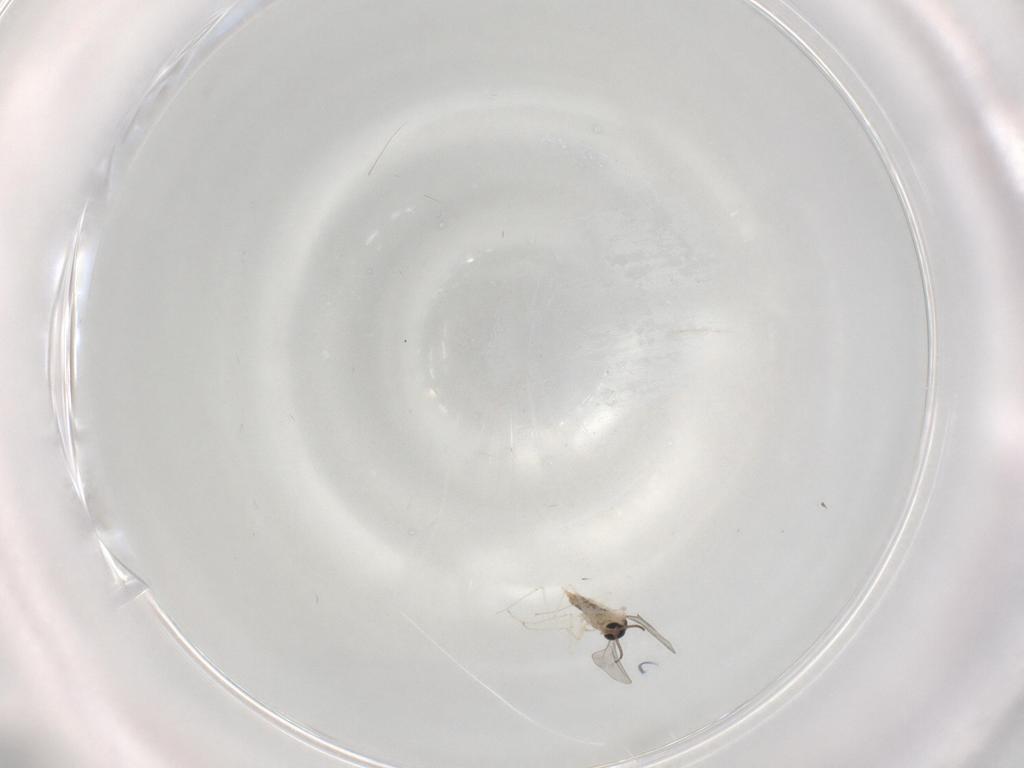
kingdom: Animalia
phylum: Arthropoda
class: Insecta
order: Diptera
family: Cecidomyiidae
